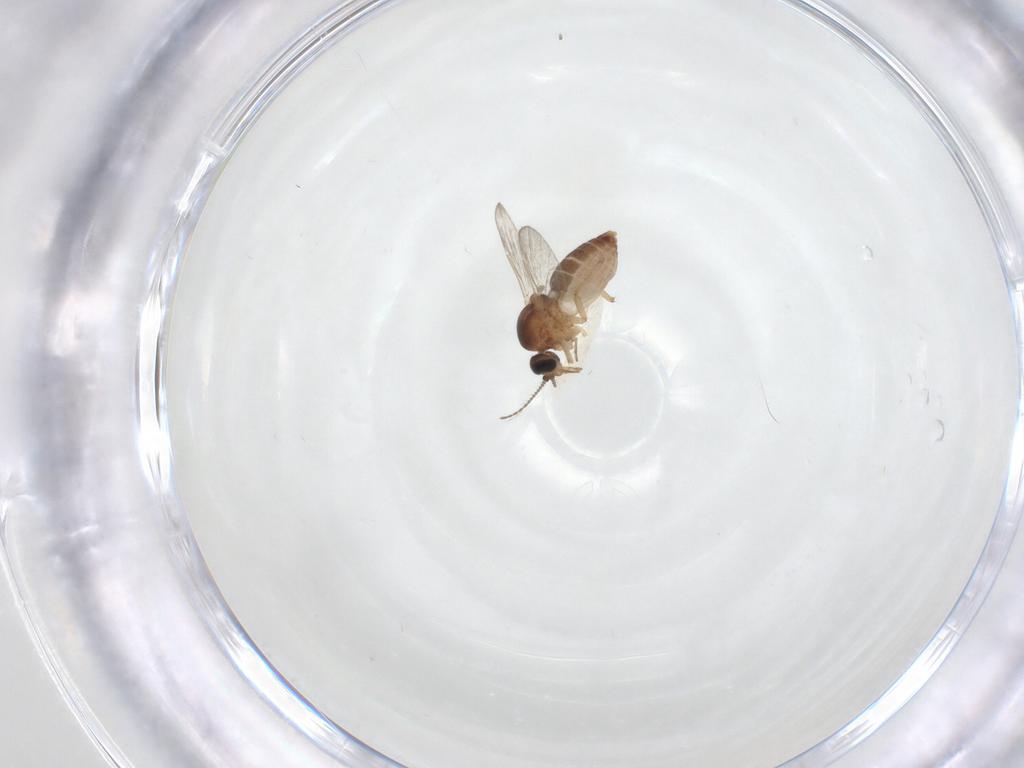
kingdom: Animalia
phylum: Arthropoda
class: Insecta
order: Diptera
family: Ceratopogonidae
